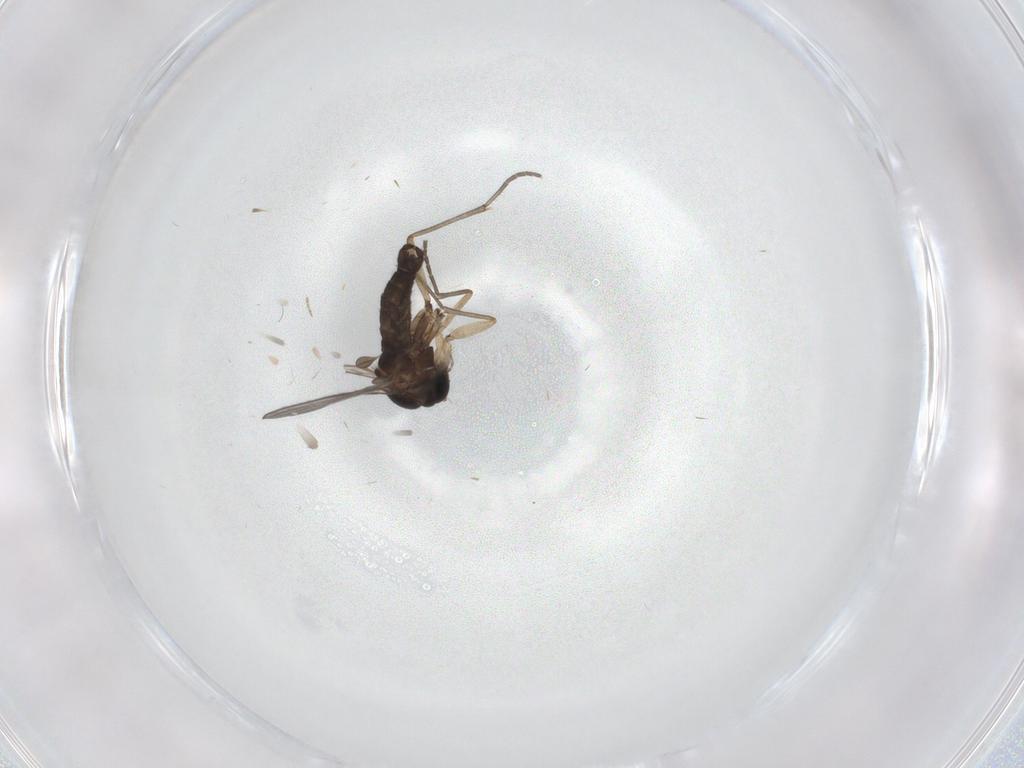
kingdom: Animalia
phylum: Arthropoda
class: Insecta
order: Diptera
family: Sciaridae
